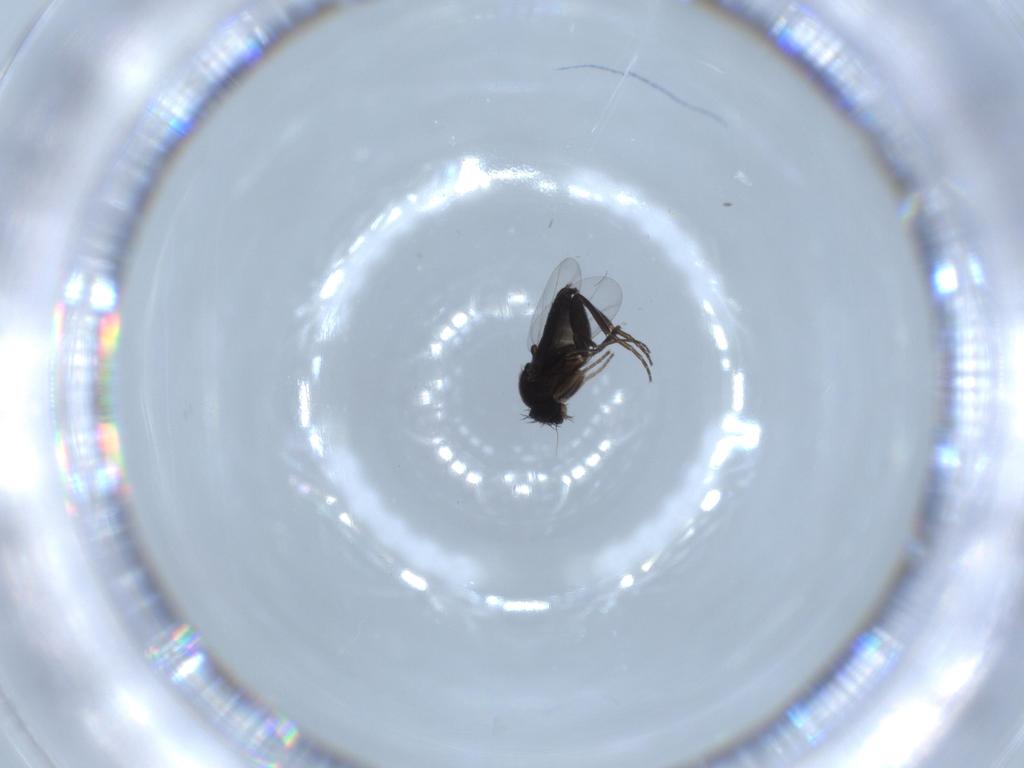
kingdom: Animalia
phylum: Arthropoda
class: Insecta
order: Diptera
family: Phoridae
